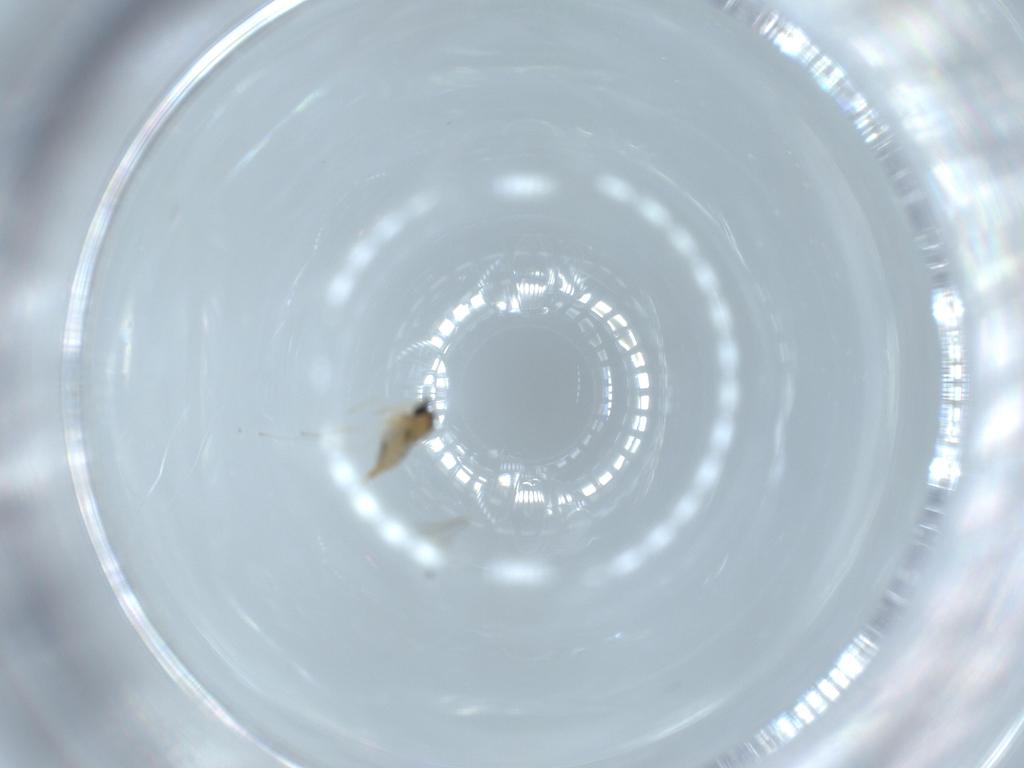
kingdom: Animalia
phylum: Arthropoda
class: Insecta
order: Diptera
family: Cecidomyiidae
